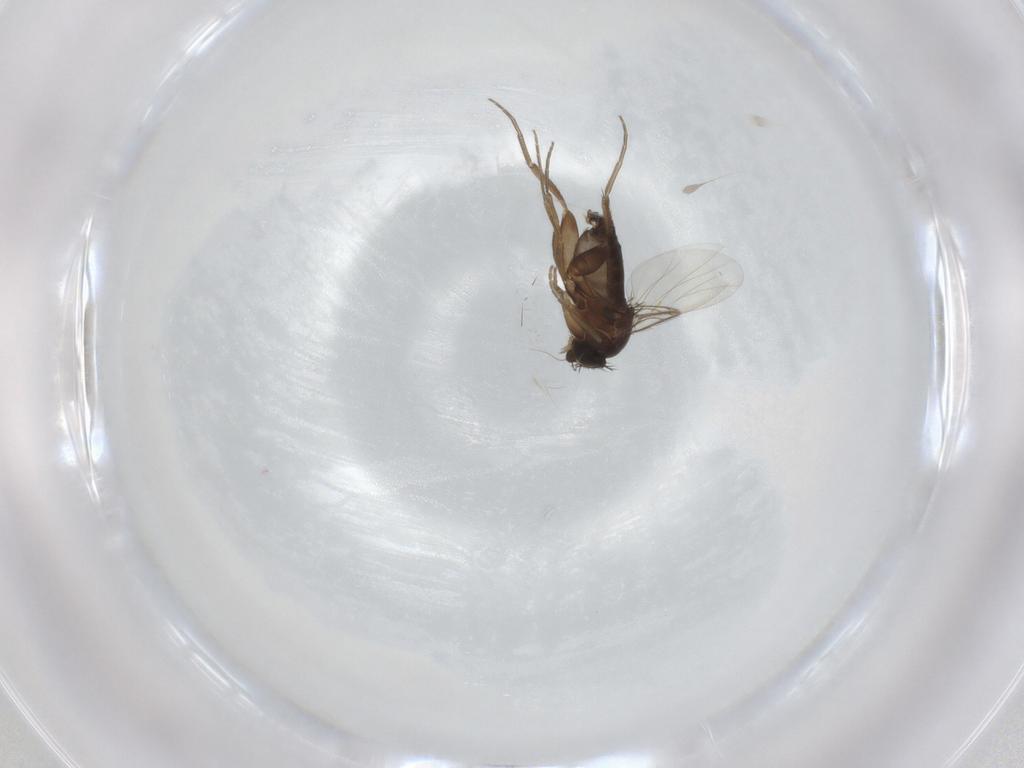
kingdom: Animalia
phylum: Arthropoda
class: Insecta
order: Diptera
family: Phoridae
